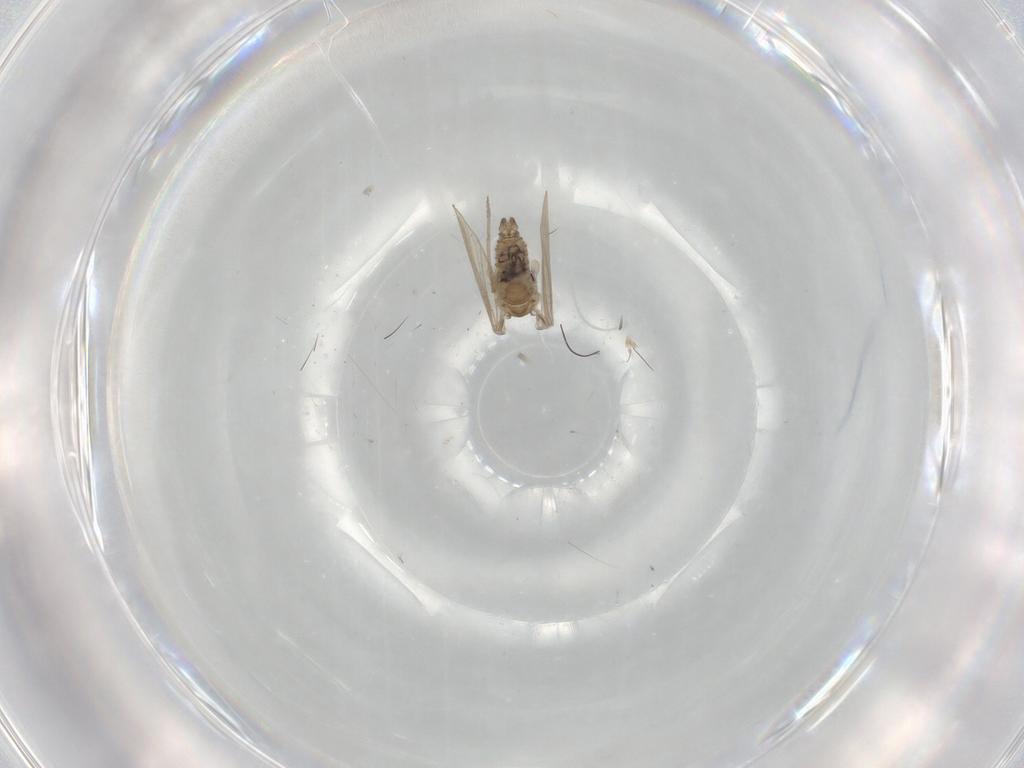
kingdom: Animalia
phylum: Arthropoda
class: Insecta
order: Diptera
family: Psychodidae
